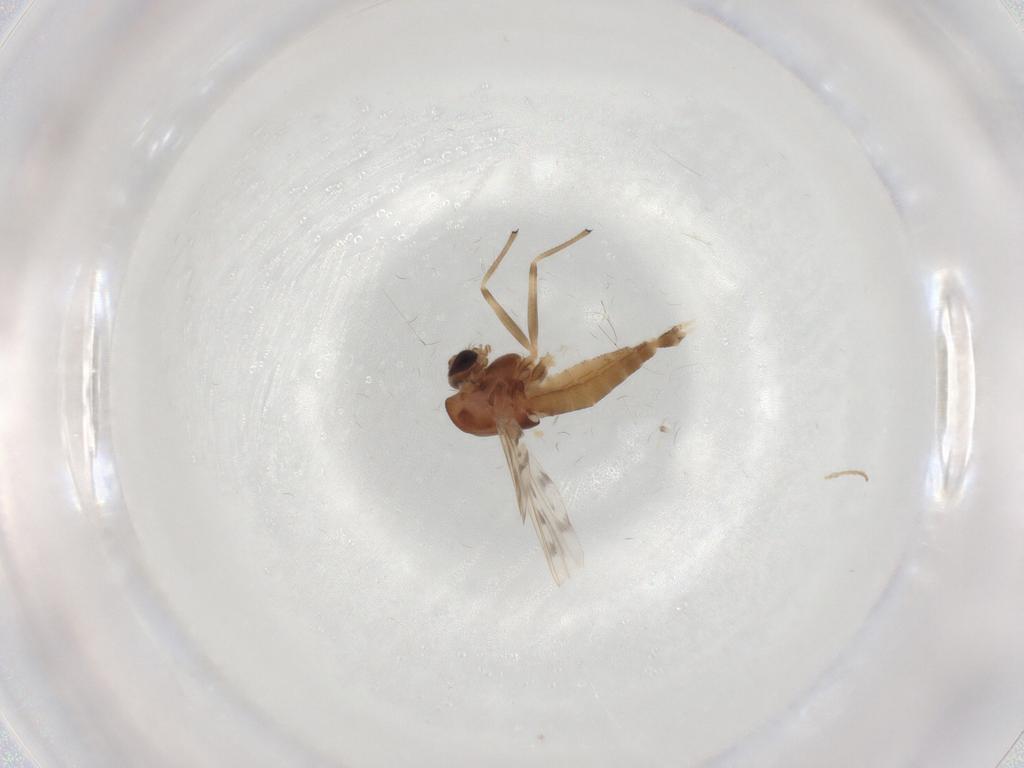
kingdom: Animalia
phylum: Arthropoda
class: Insecta
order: Diptera
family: Chironomidae
